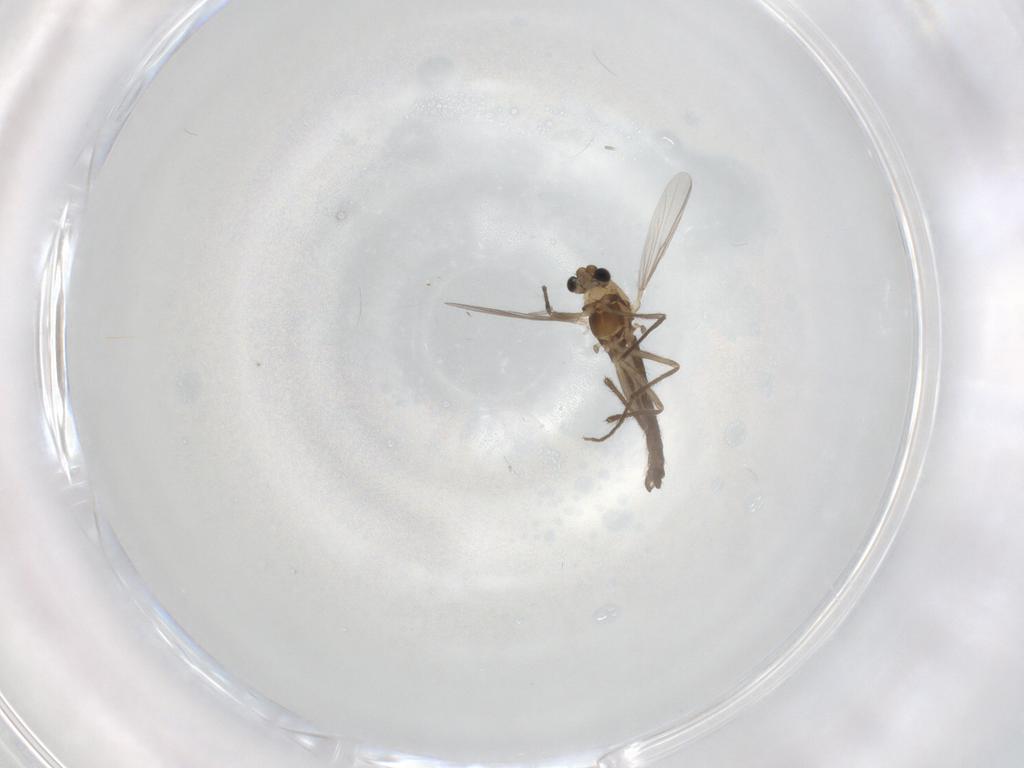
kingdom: Animalia
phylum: Arthropoda
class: Insecta
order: Diptera
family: Chironomidae
